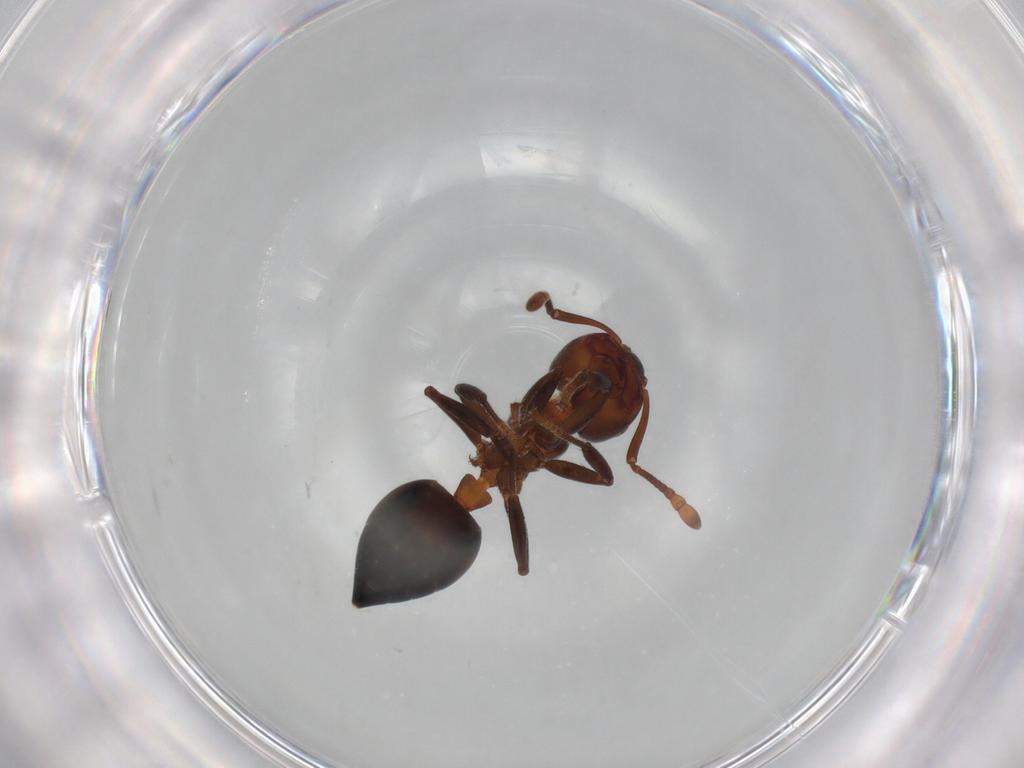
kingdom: Animalia
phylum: Arthropoda
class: Insecta
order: Hymenoptera
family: Formicidae
